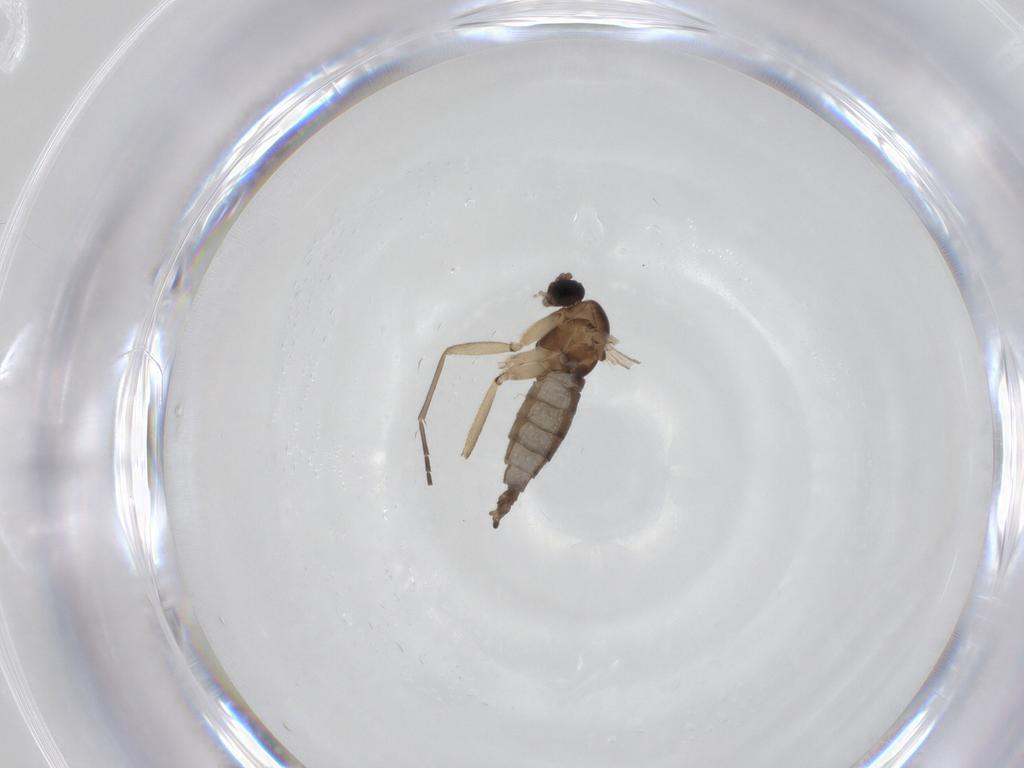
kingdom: Animalia
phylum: Arthropoda
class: Insecta
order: Diptera
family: Sciaridae
